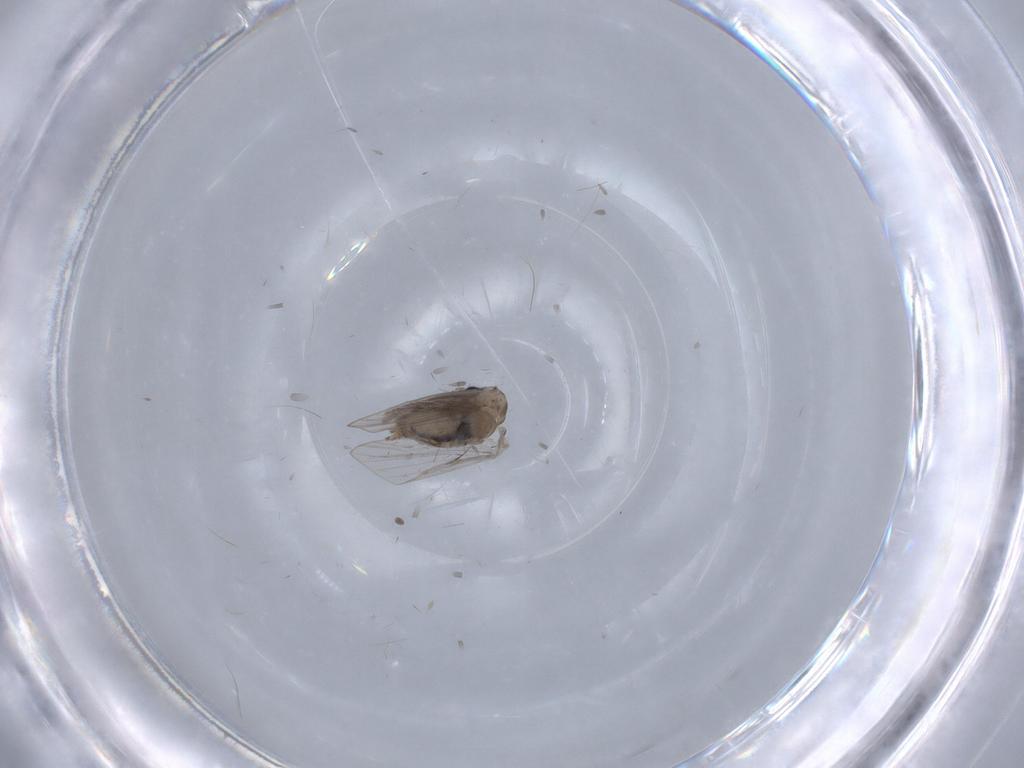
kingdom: Animalia
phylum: Arthropoda
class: Insecta
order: Diptera
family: Psychodidae
